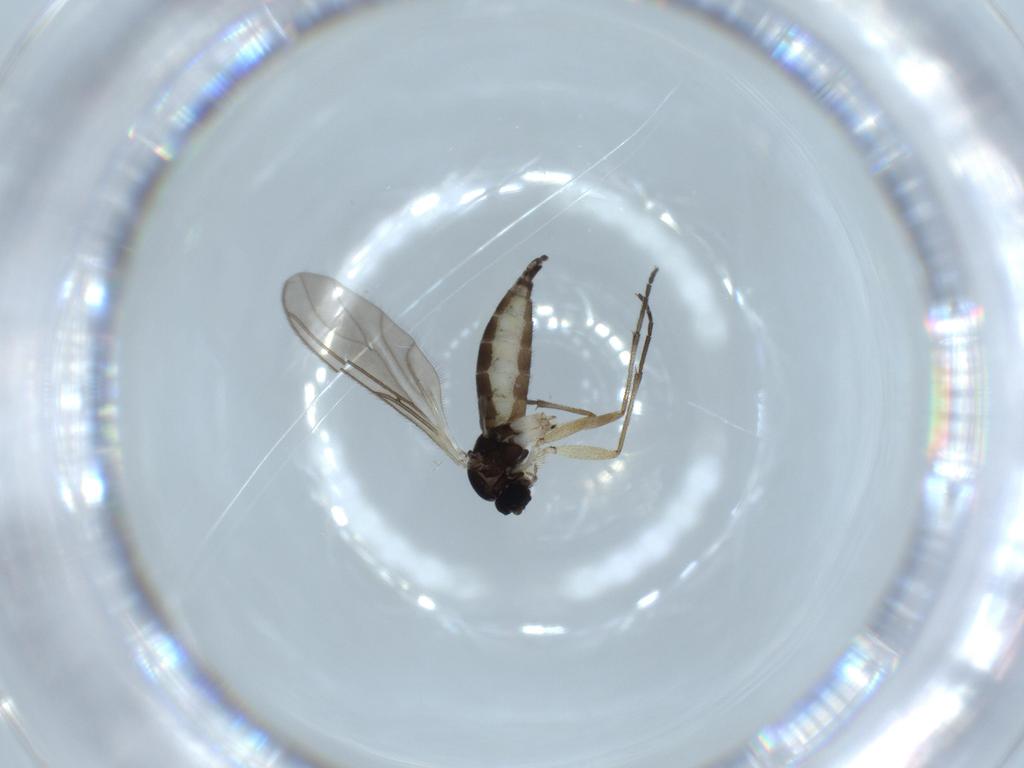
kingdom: Animalia
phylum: Arthropoda
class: Insecta
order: Diptera
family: Sciaridae
